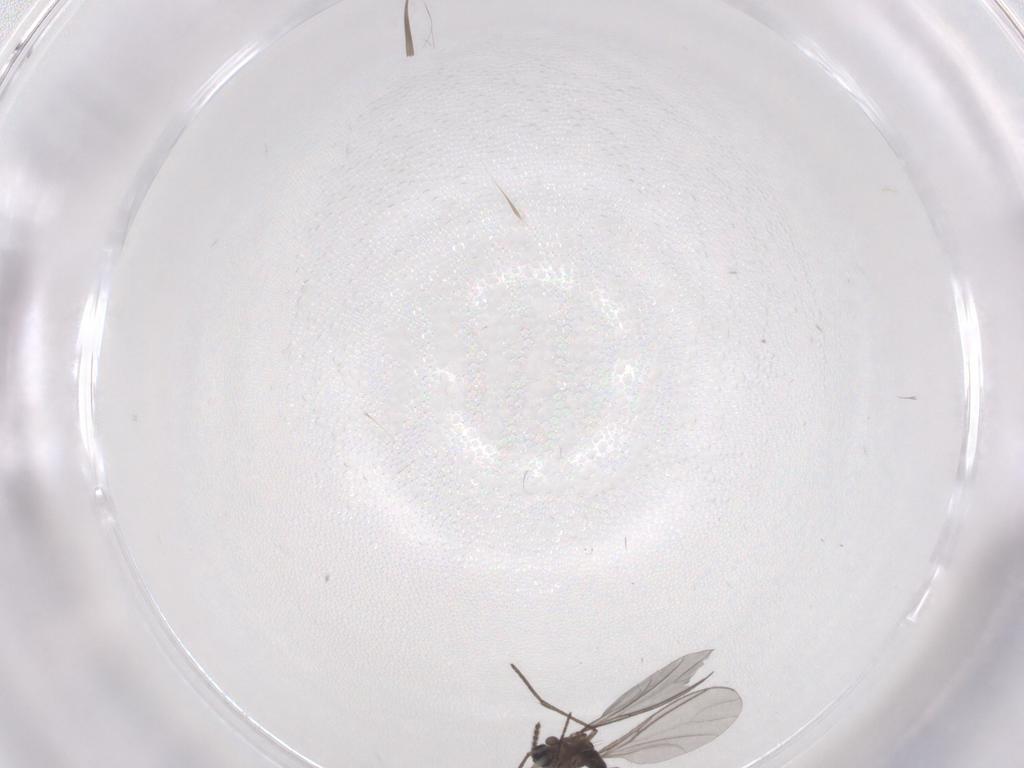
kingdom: Animalia
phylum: Arthropoda
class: Insecta
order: Diptera
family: Sciaridae
